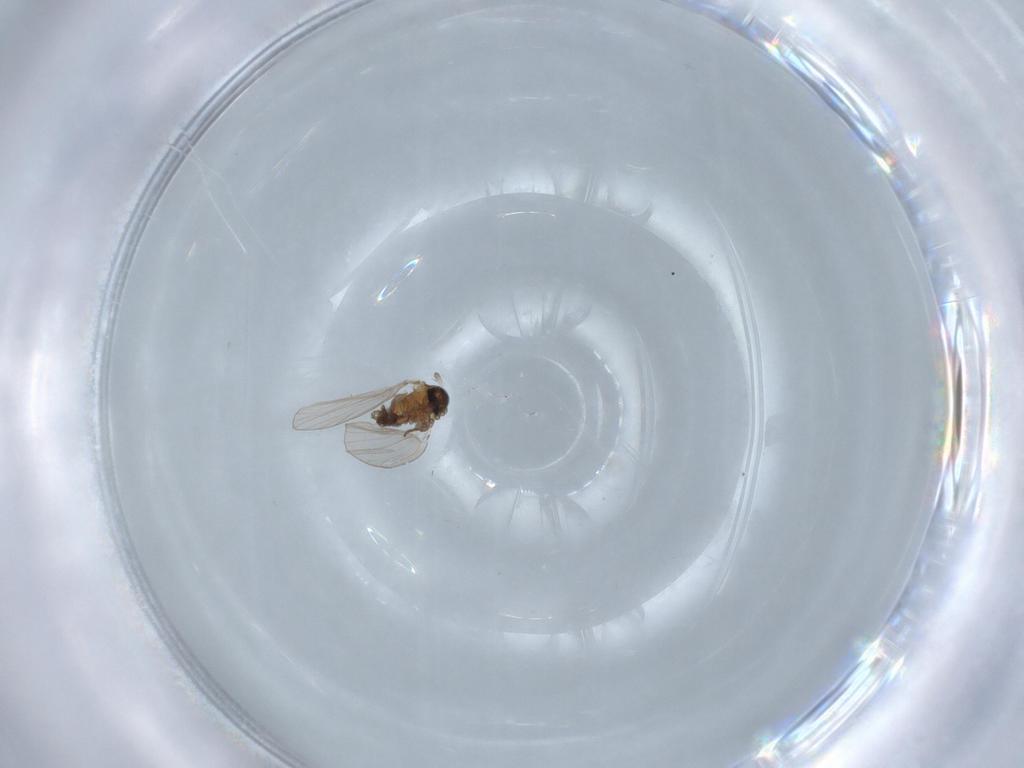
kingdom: Animalia
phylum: Arthropoda
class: Insecta
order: Diptera
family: Psychodidae
